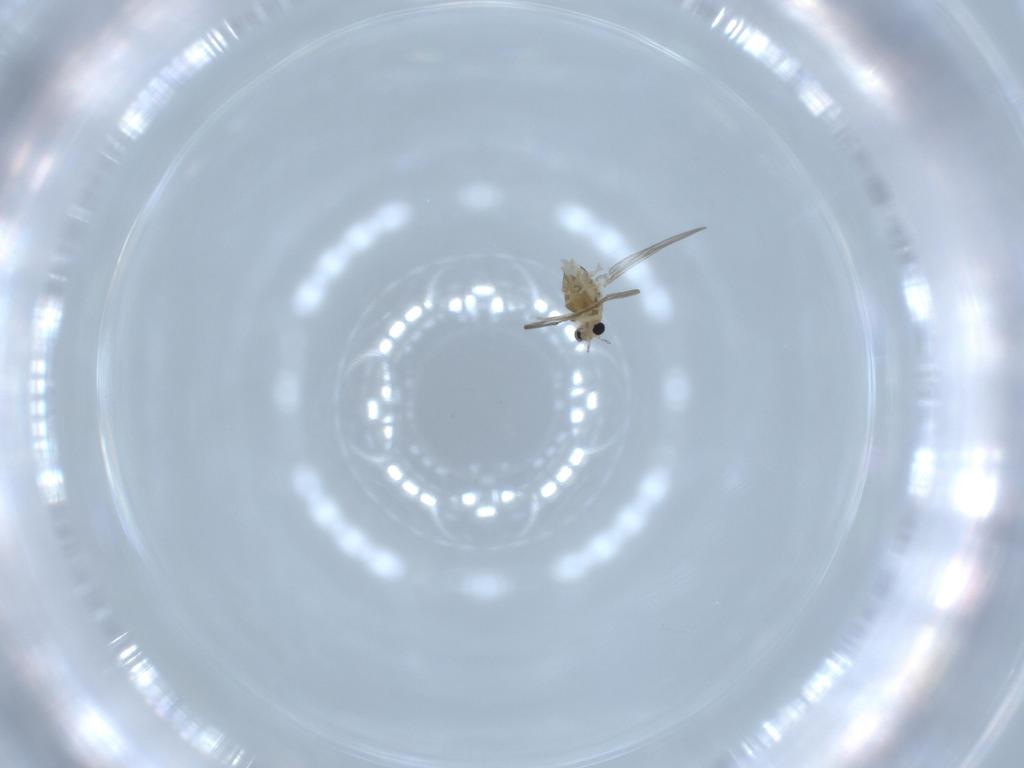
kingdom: Animalia
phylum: Arthropoda
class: Insecta
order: Diptera
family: Chironomidae
